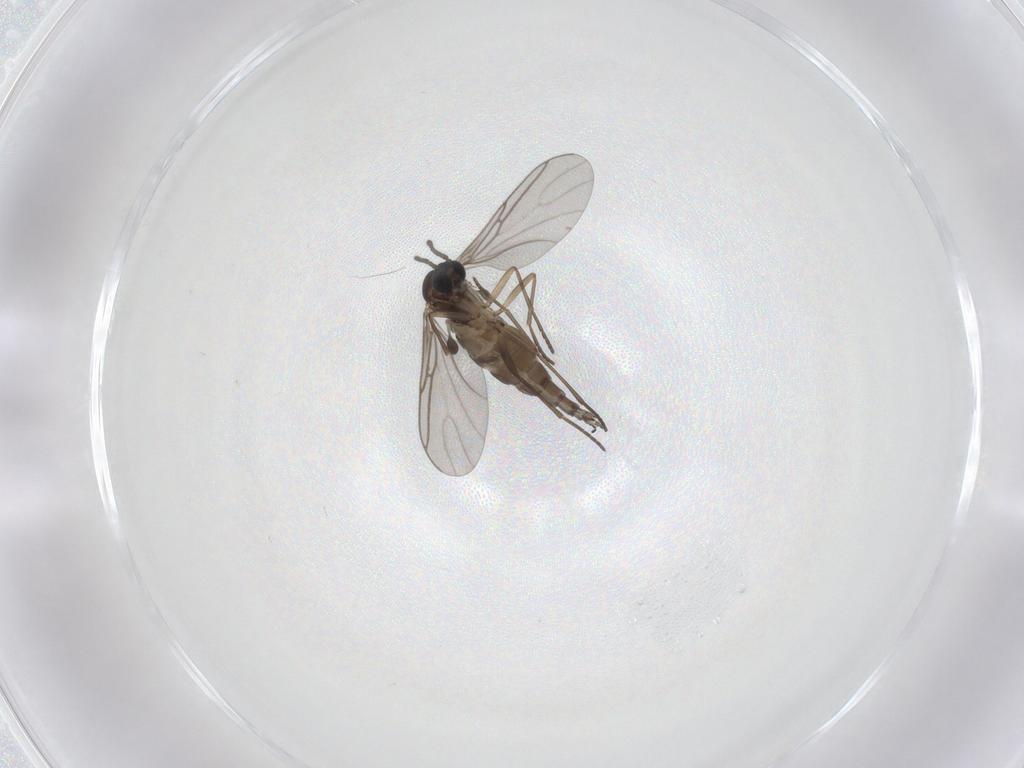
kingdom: Animalia
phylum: Arthropoda
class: Insecta
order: Diptera
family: Sciaridae
